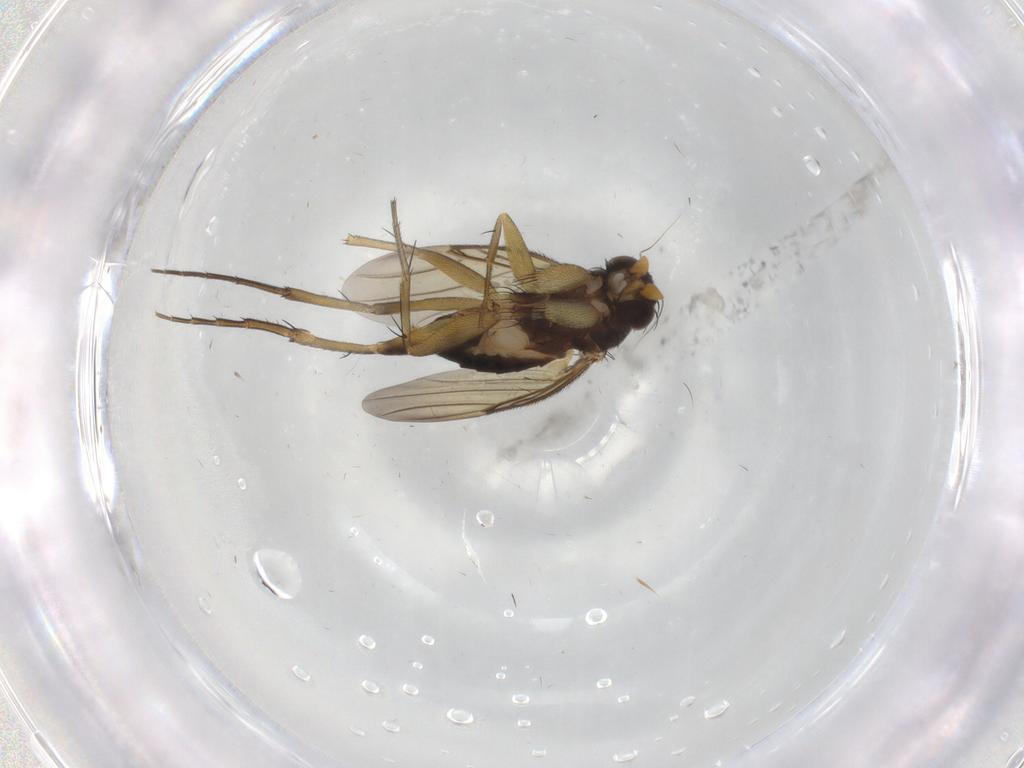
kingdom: Animalia
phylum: Arthropoda
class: Insecta
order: Diptera
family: Phoridae
